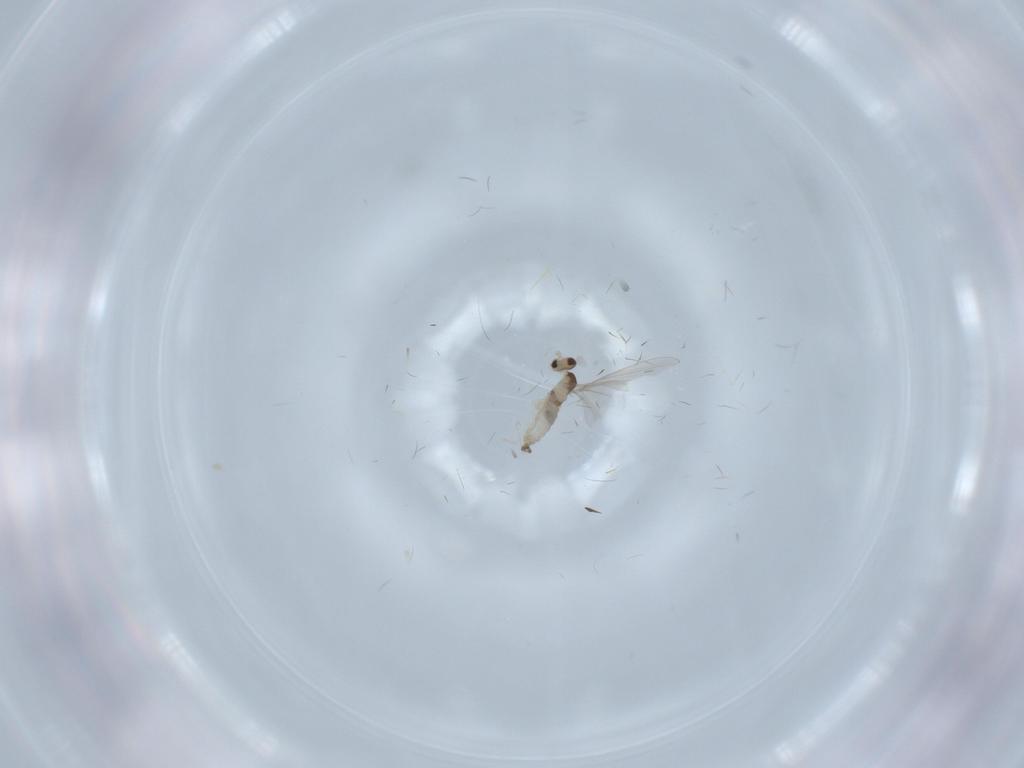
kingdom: Animalia
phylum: Arthropoda
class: Insecta
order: Diptera
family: Cecidomyiidae
